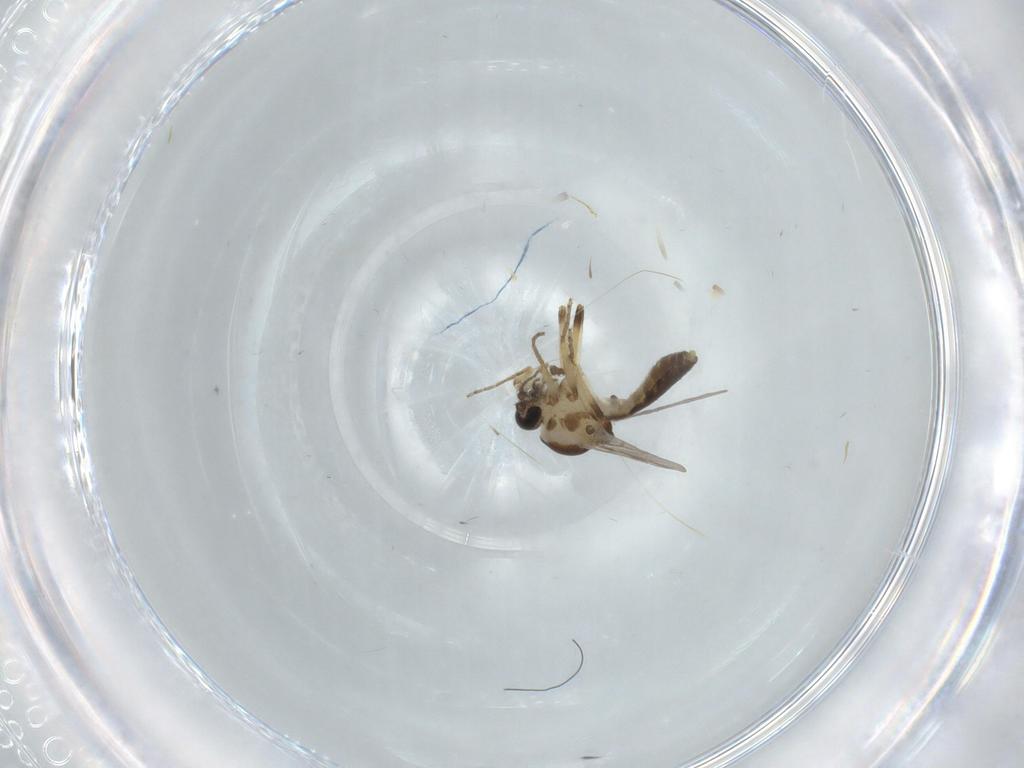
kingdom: Animalia
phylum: Arthropoda
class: Insecta
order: Diptera
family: Ceratopogonidae
